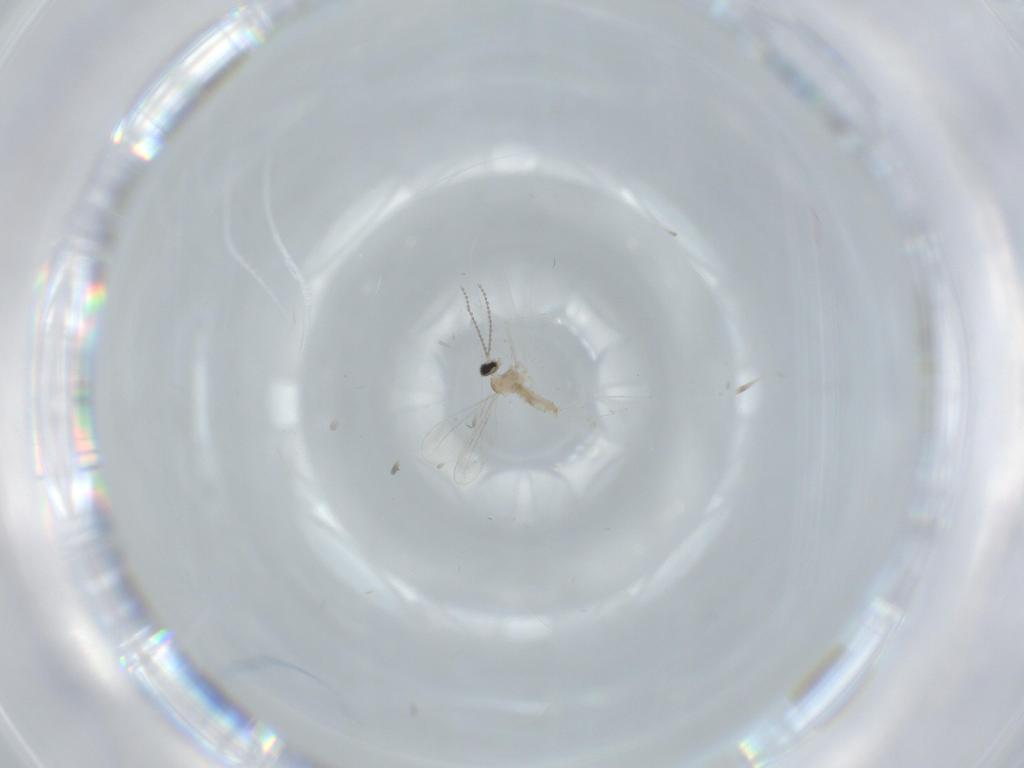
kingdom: Animalia
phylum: Arthropoda
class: Insecta
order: Diptera
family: Cecidomyiidae
